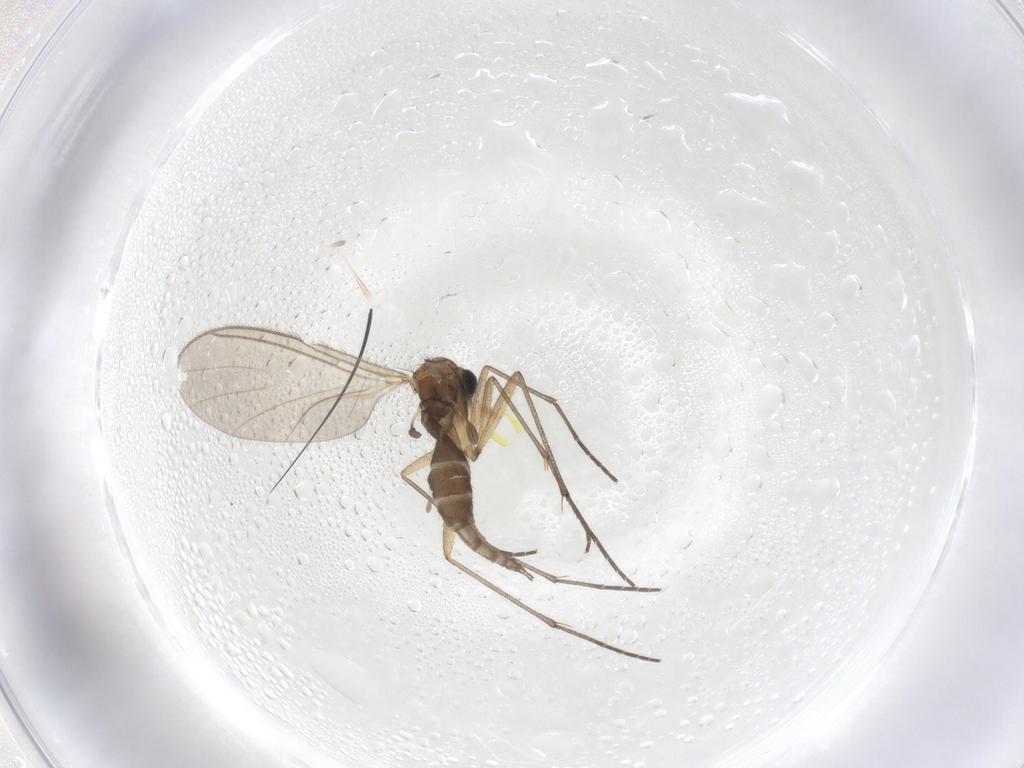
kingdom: Animalia
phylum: Arthropoda
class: Insecta
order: Diptera
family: Sciaridae
